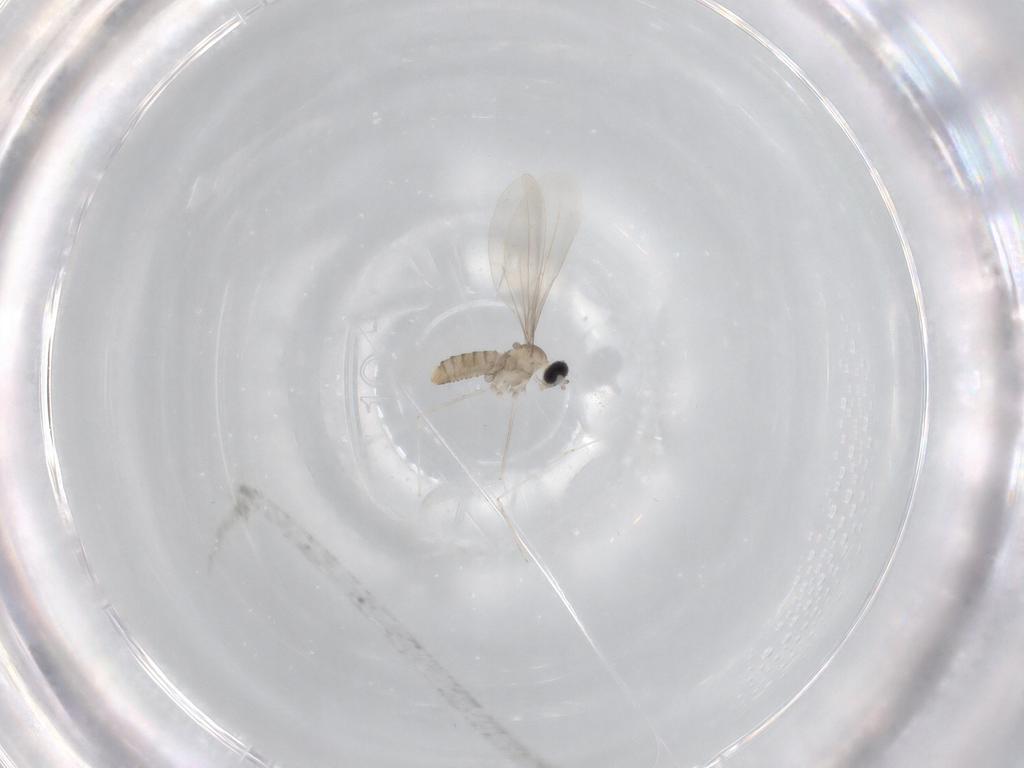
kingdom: Animalia
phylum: Arthropoda
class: Insecta
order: Diptera
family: Cecidomyiidae
